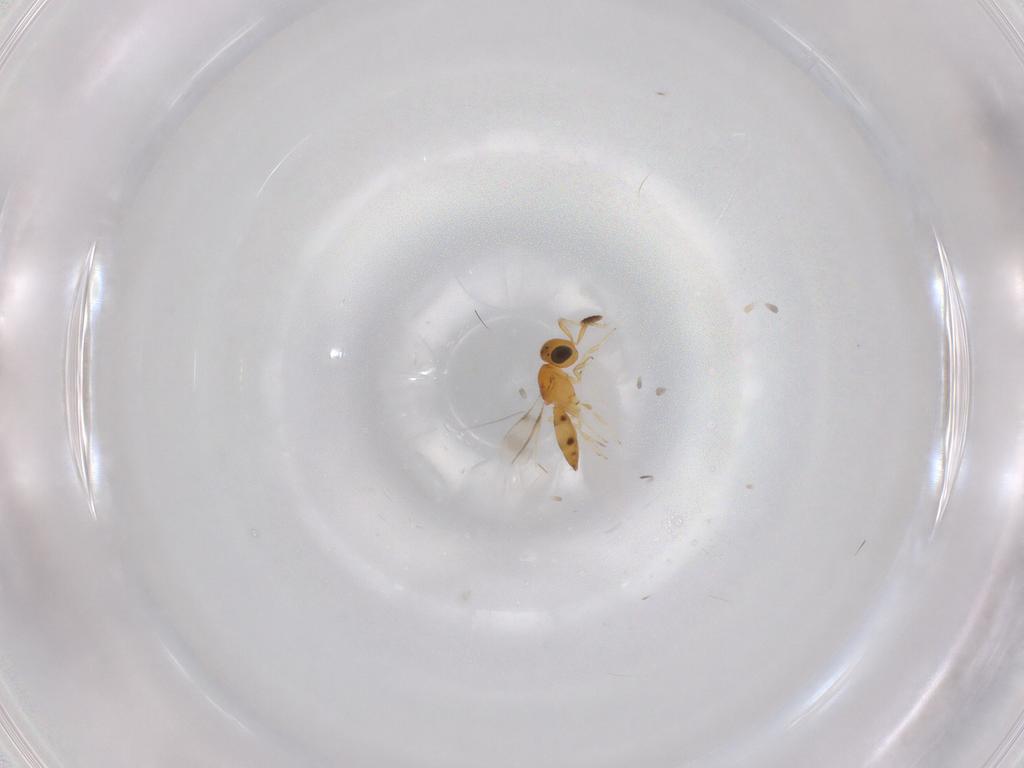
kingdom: Animalia
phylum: Arthropoda
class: Insecta
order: Hymenoptera
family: Scelionidae
